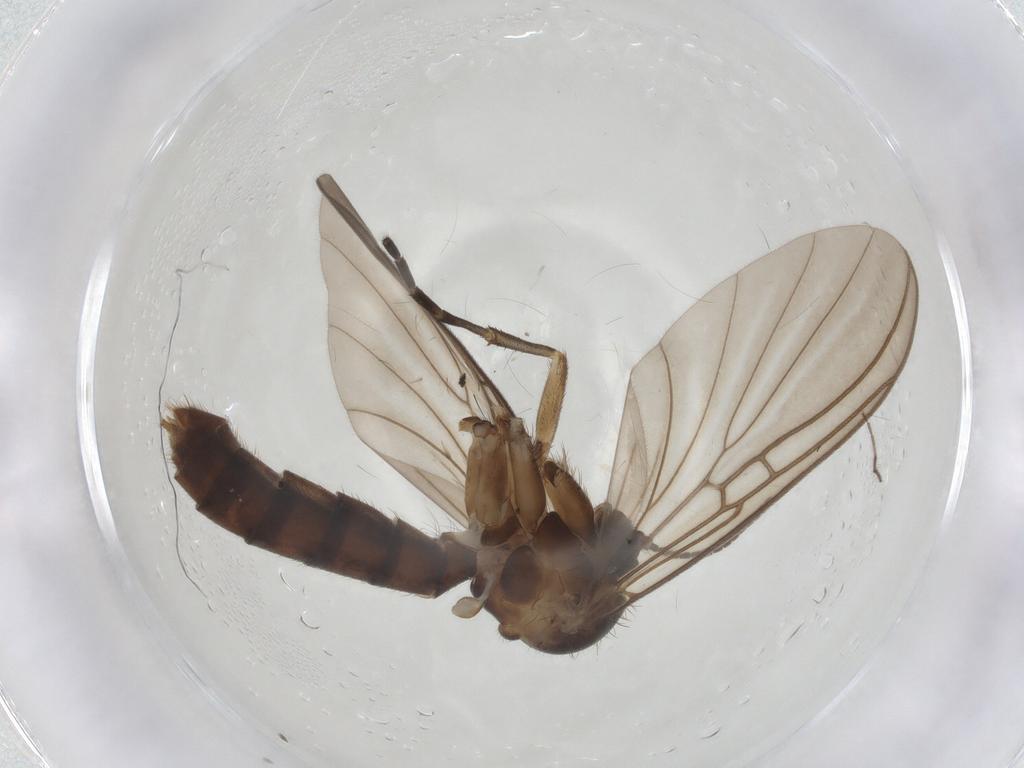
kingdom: Animalia
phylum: Arthropoda
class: Insecta
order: Diptera
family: Mycetophilidae
